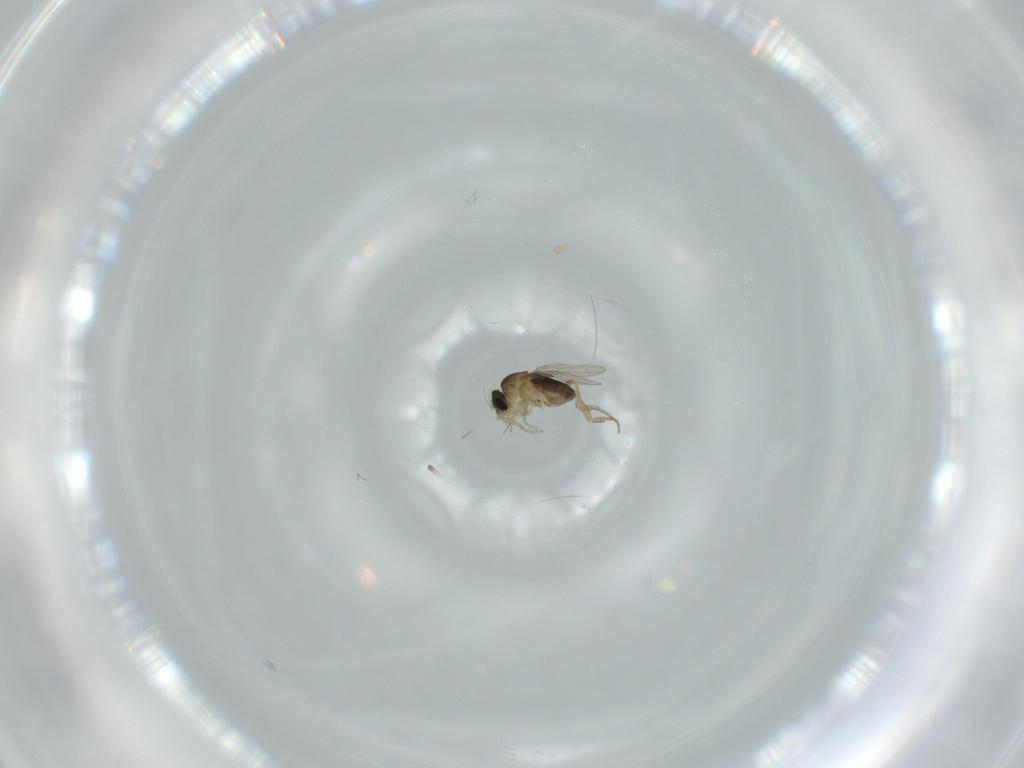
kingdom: Animalia
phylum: Arthropoda
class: Insecta
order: Diptera
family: Phoridae
